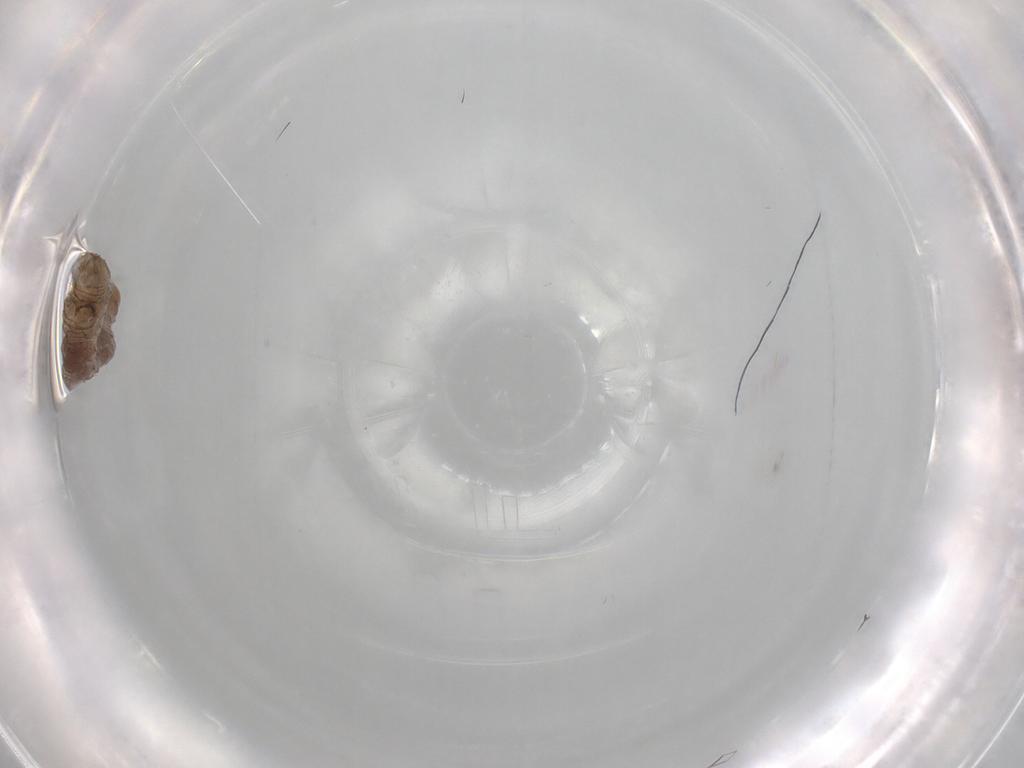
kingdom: Animalia
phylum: Arthropoda
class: Insecta
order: Lepidoptera
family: Geometridae
